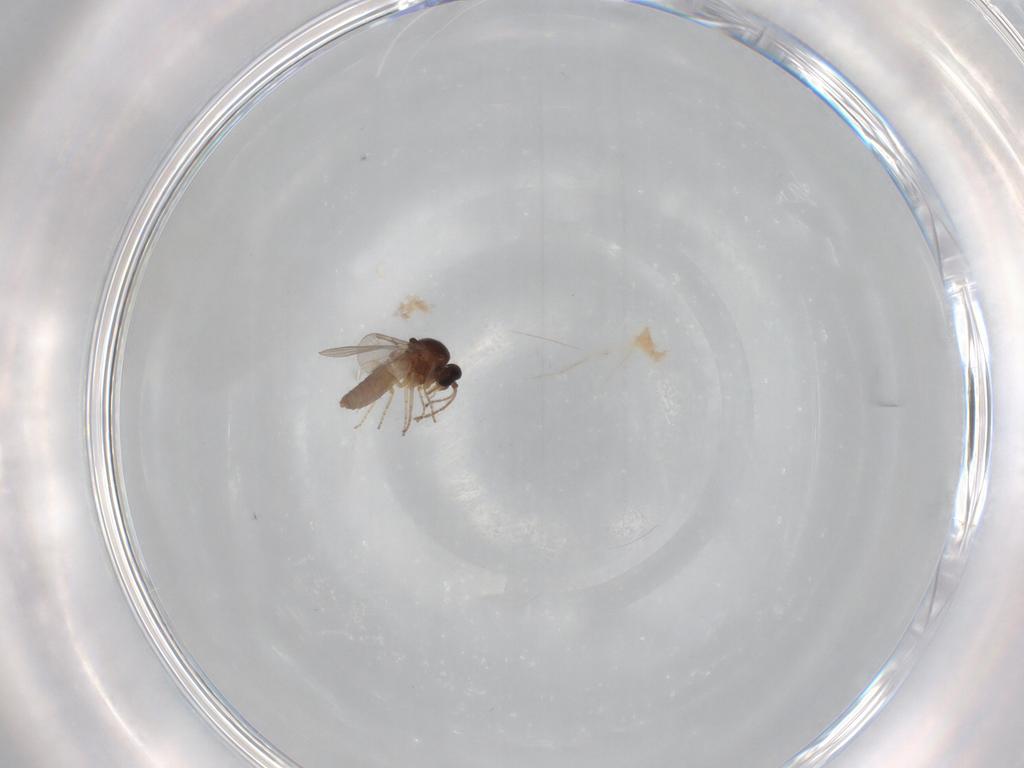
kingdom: Animalia
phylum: Arthropoda
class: Insecta
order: Diptera
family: Ceratopogonidae
